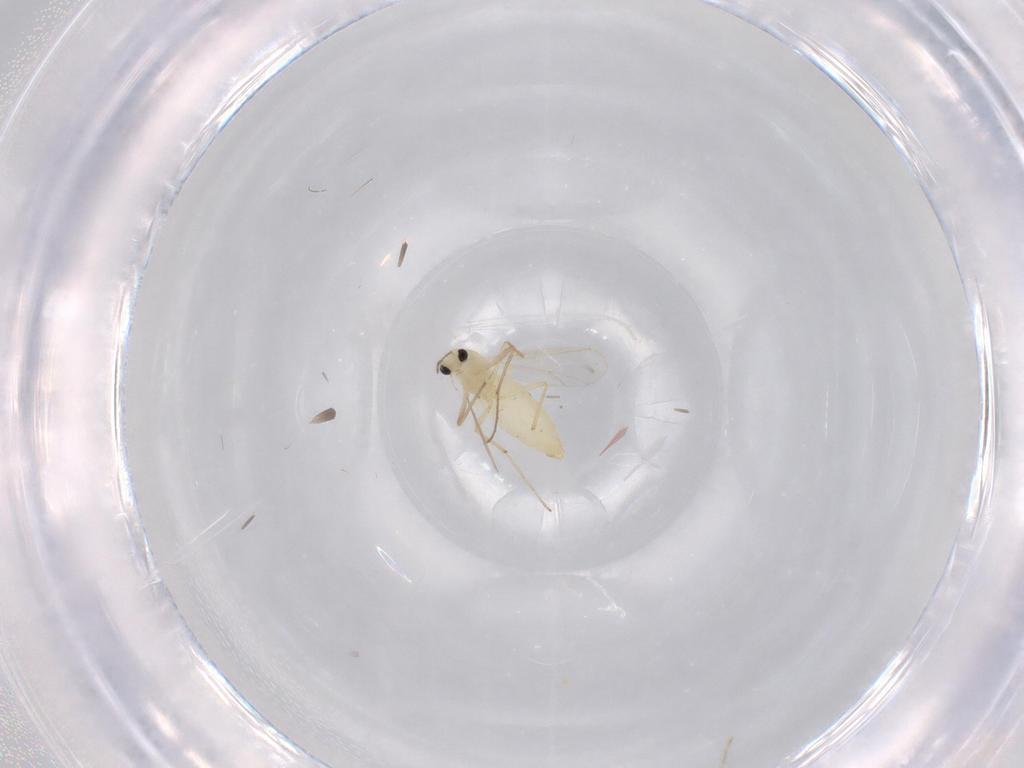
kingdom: Animalia
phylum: Arthropoda
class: Insecta
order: Diptera
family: Chironomidae
